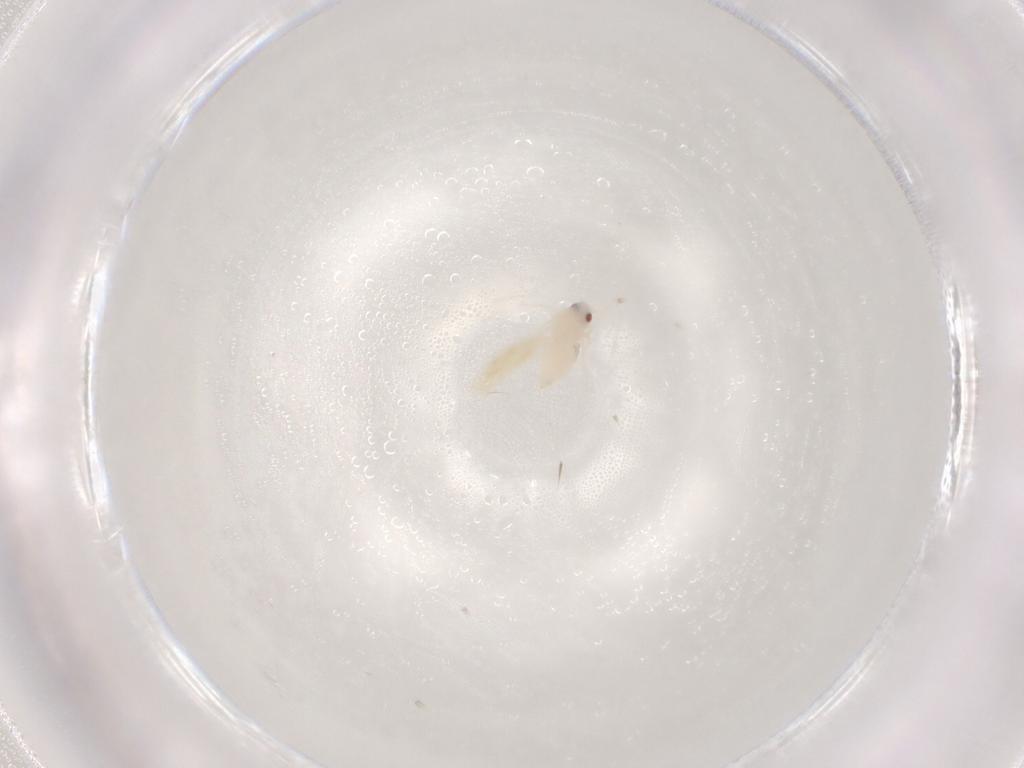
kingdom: Animalia
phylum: Arthropoda
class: Insecta
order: Hemiptera
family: Aleyrodidae
